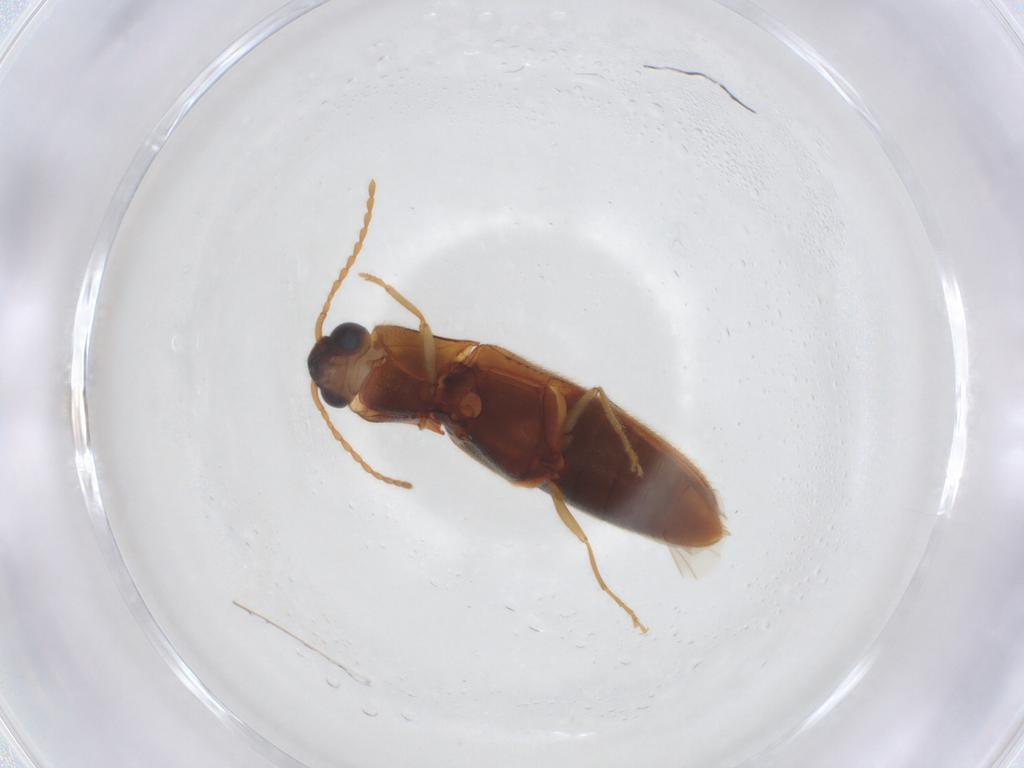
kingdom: Animalia
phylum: Arthropoda
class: Insecta
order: Coleoptera
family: Elateridae
